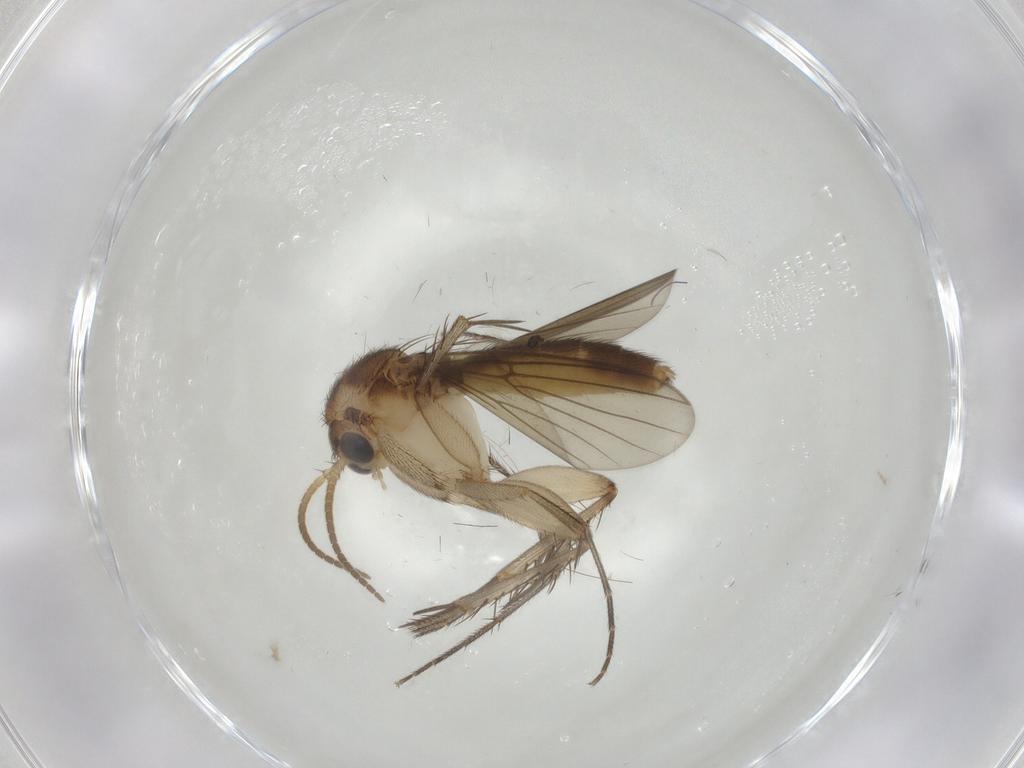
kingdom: Animalia
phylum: Arthropoda
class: Insecta
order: Diptera
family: Mycetophilidae
